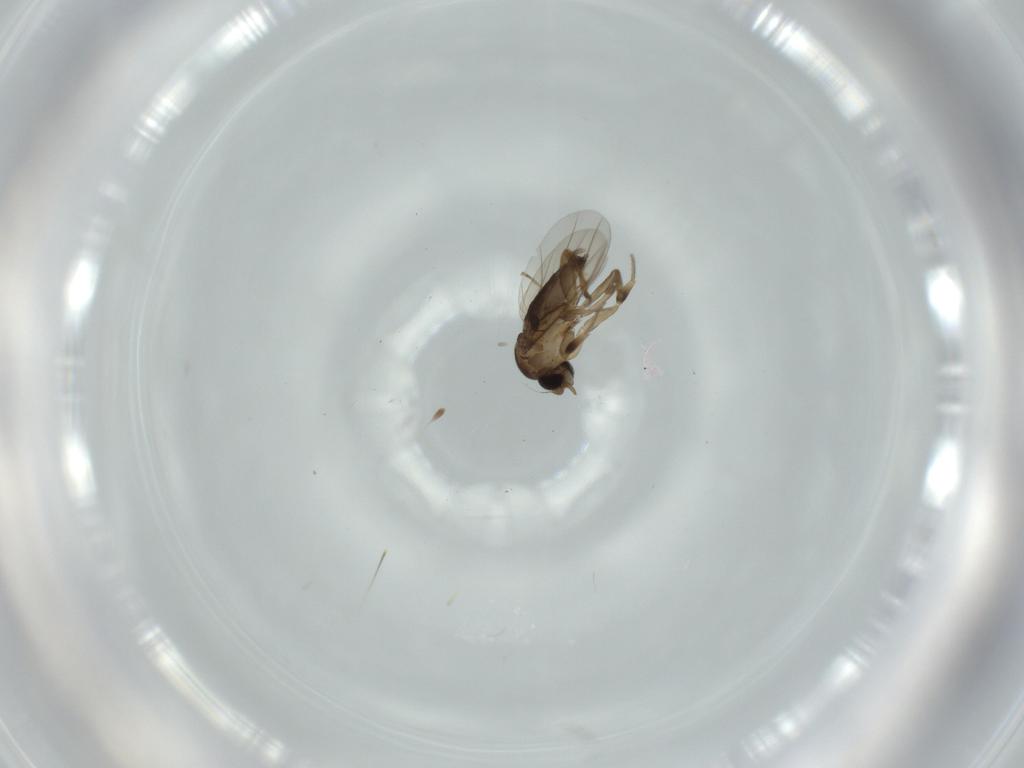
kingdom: Animalia
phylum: Arthropoda
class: Insecta
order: Diptera
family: Phoridae
